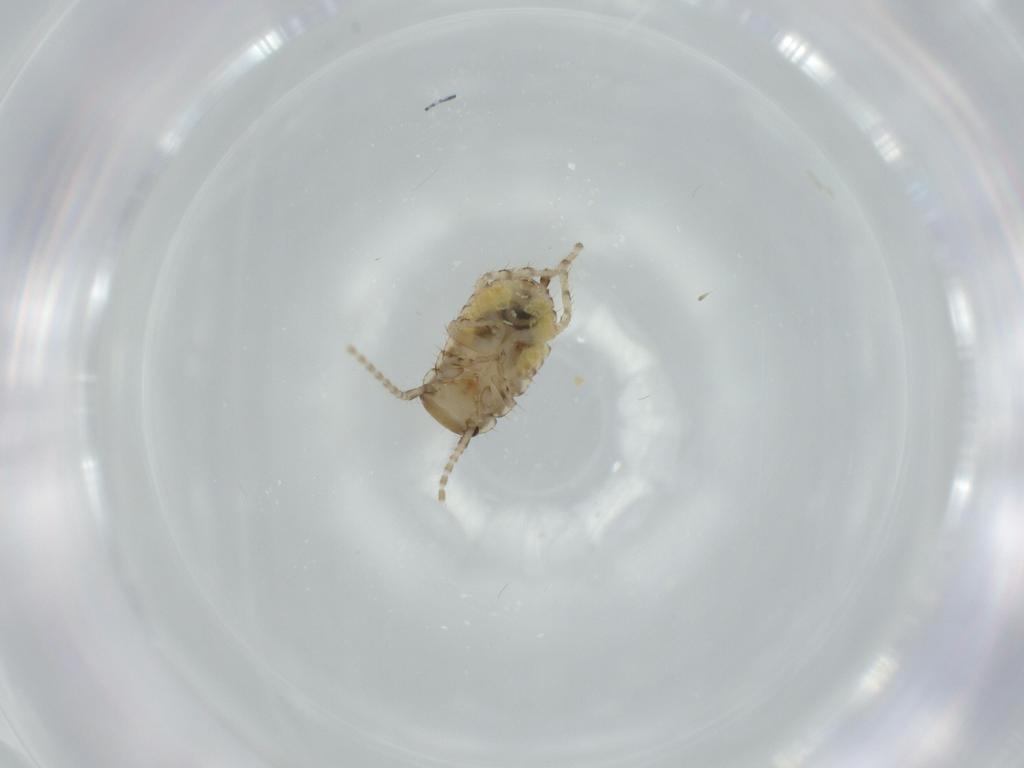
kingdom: Animalia
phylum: Arthropoda
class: Insecta
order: Blattodea
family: Ectobiidae
